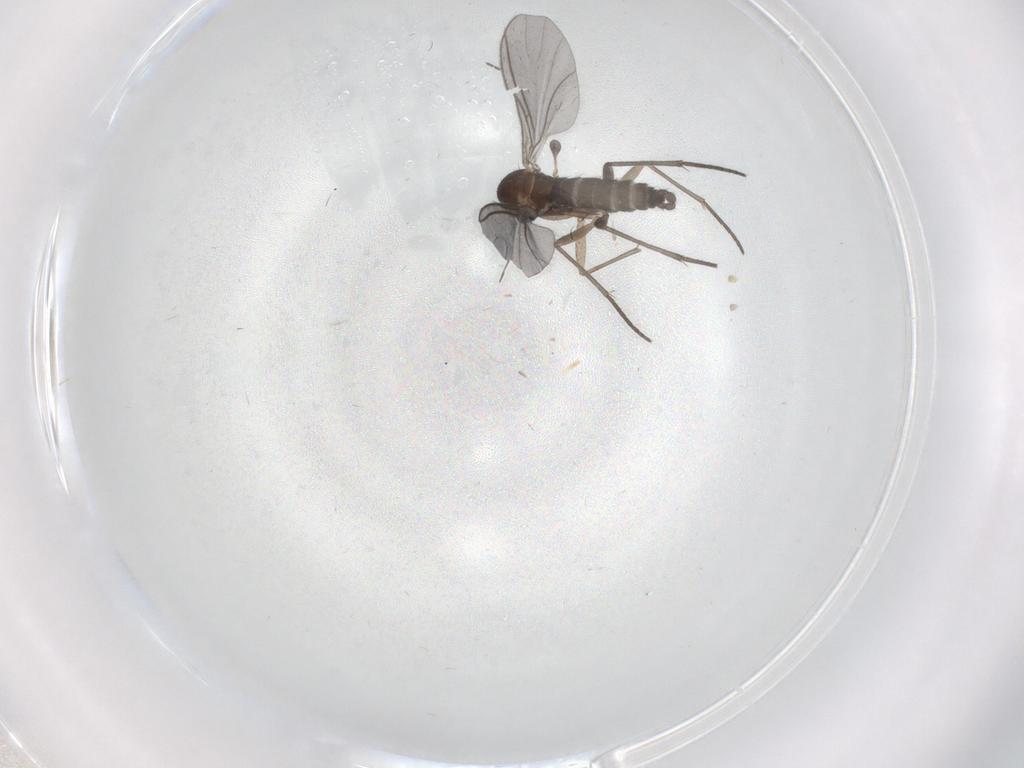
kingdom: Animalia
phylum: Arthropoda
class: Insecta
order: Diptera
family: Sciaridae
